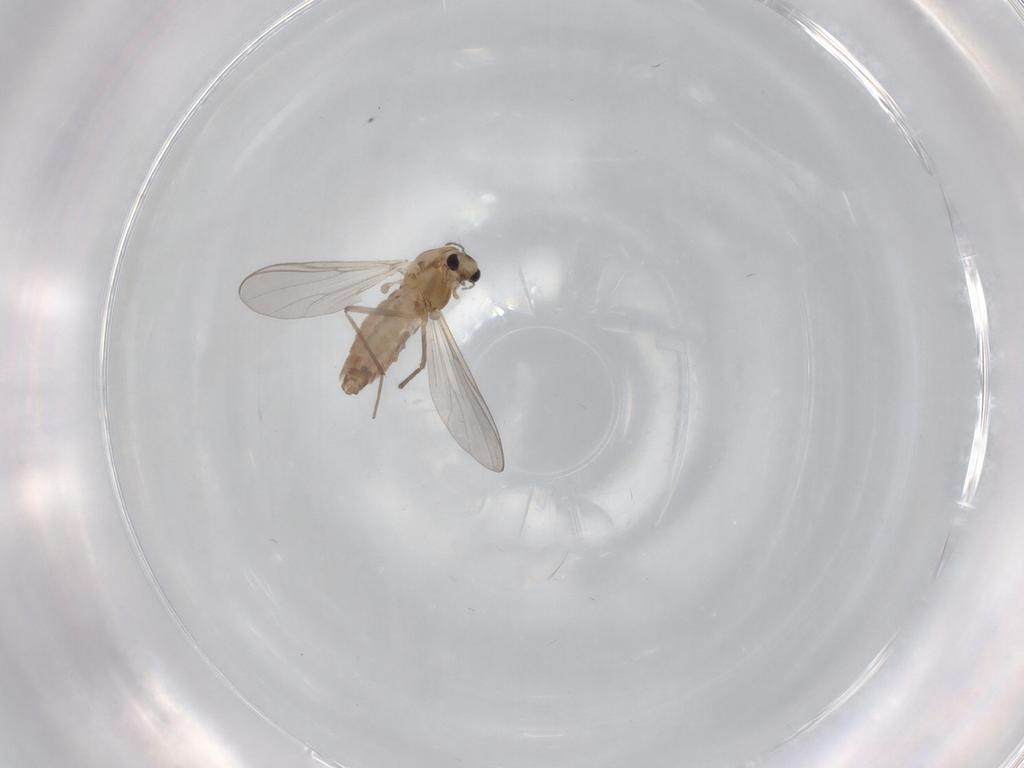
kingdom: Animalia
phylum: Arthropoda
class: Insecta
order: Diptera
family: Chironomidae
